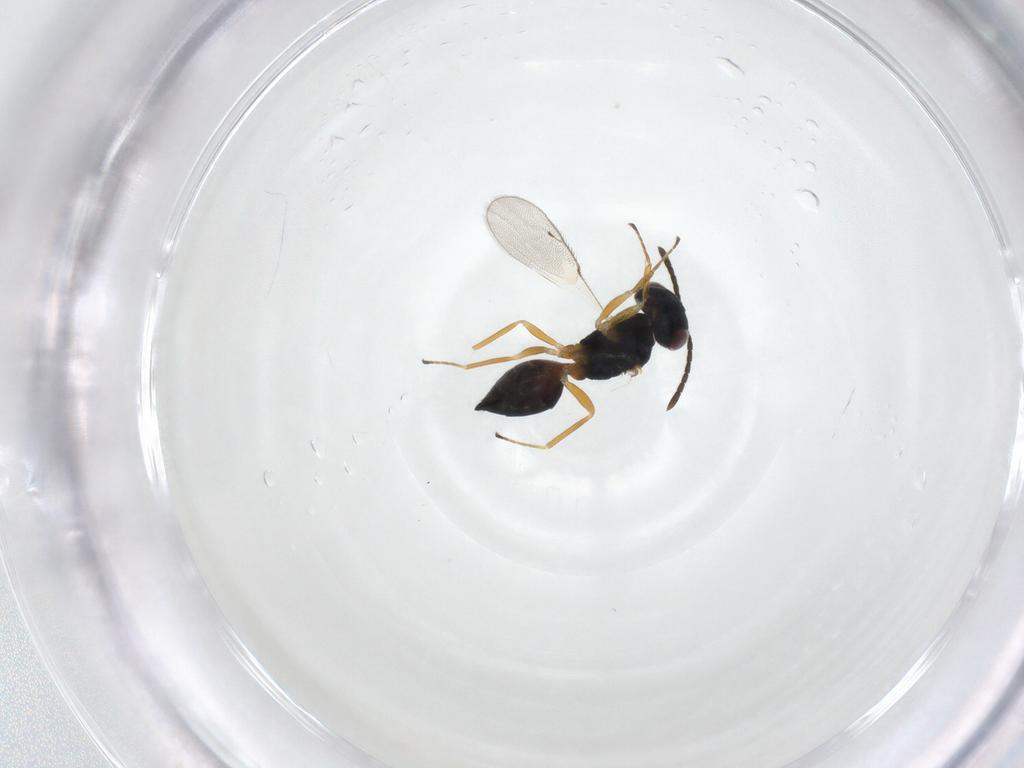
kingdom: Animalia
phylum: Arthropoda
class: Insecta
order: Hymenoptera
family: Pteromalidae
